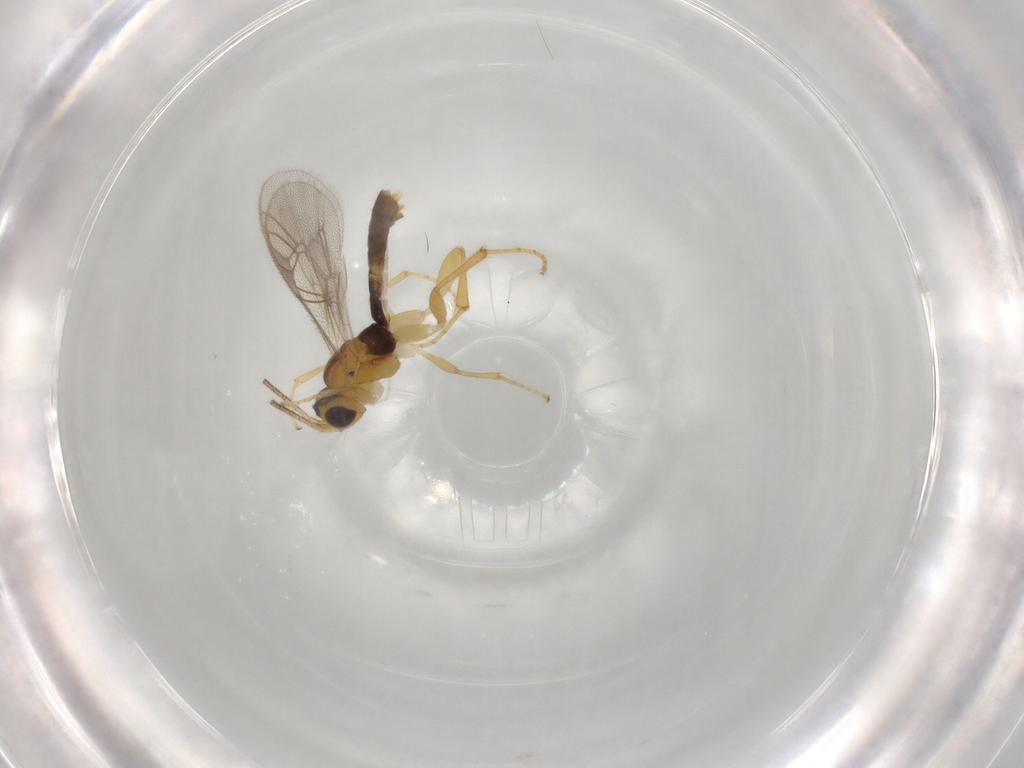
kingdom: Animalia
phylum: Arthropoda
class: Insecta
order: Hymenoptera
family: Ichneumonidae
